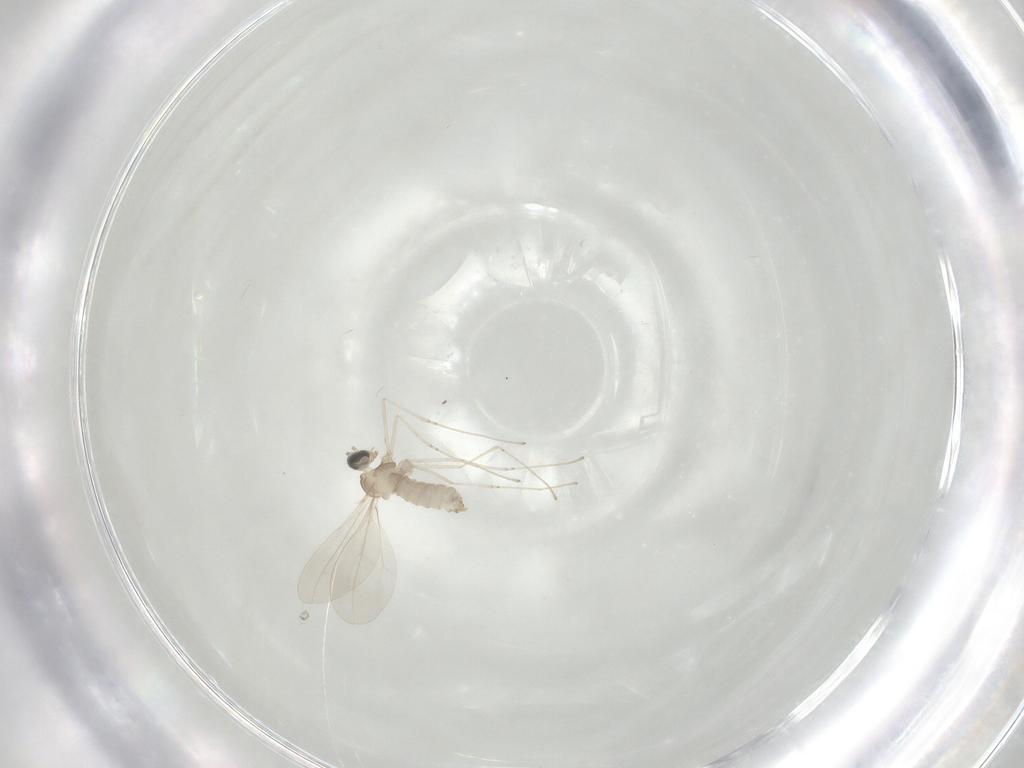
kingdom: Animalia
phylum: Arthropoda
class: Insecta
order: Diptera
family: Cecidomyiidae
